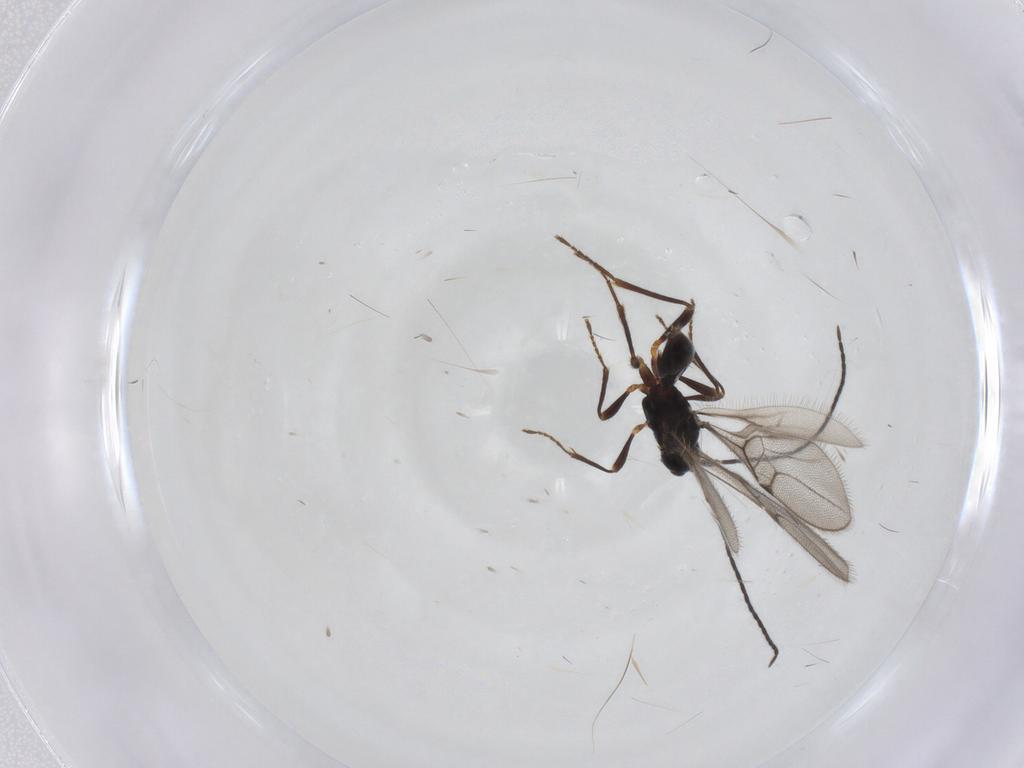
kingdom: Animalia
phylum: Arthropoda
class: Insecta
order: Hymenoptera
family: Braconidae
